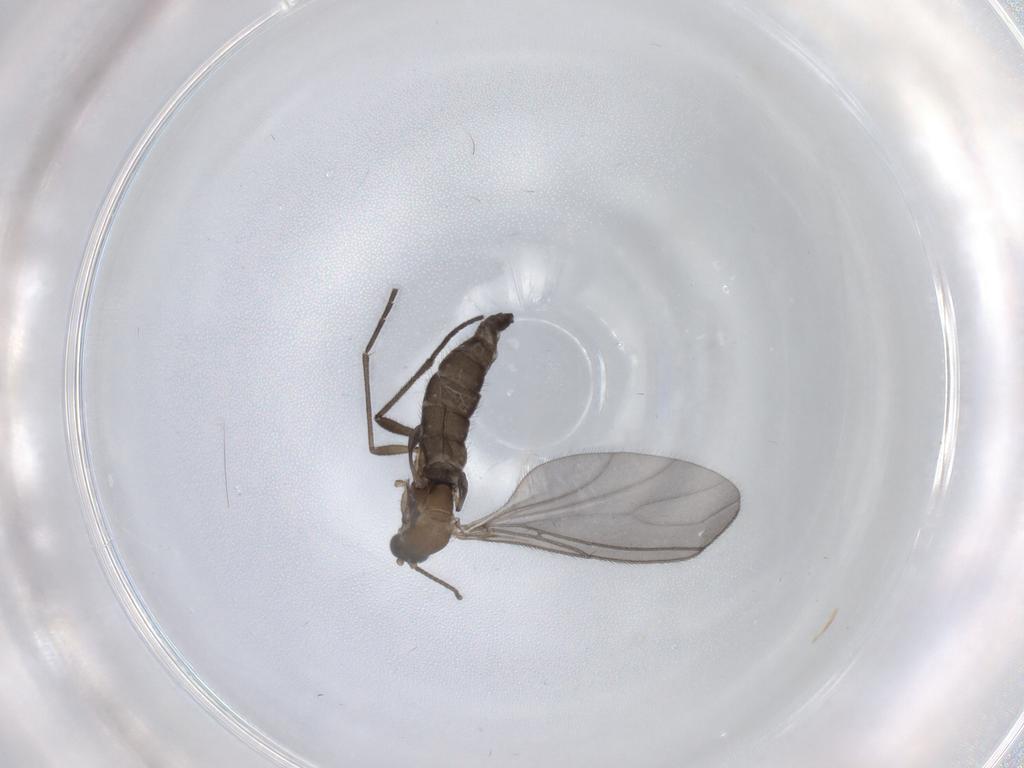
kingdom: Animalia
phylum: Arthropoda
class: Insecta
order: Diptera
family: Sciaridae
